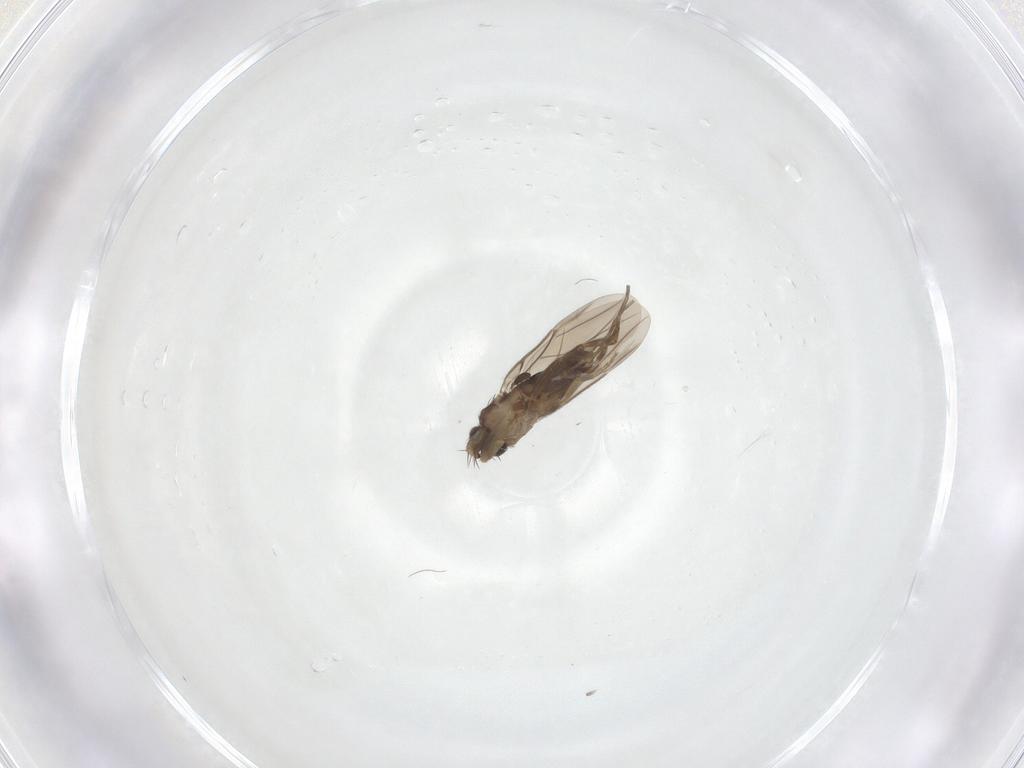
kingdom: Animalia
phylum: Arthropoda
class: Insecta
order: Diptera
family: Phoridae
